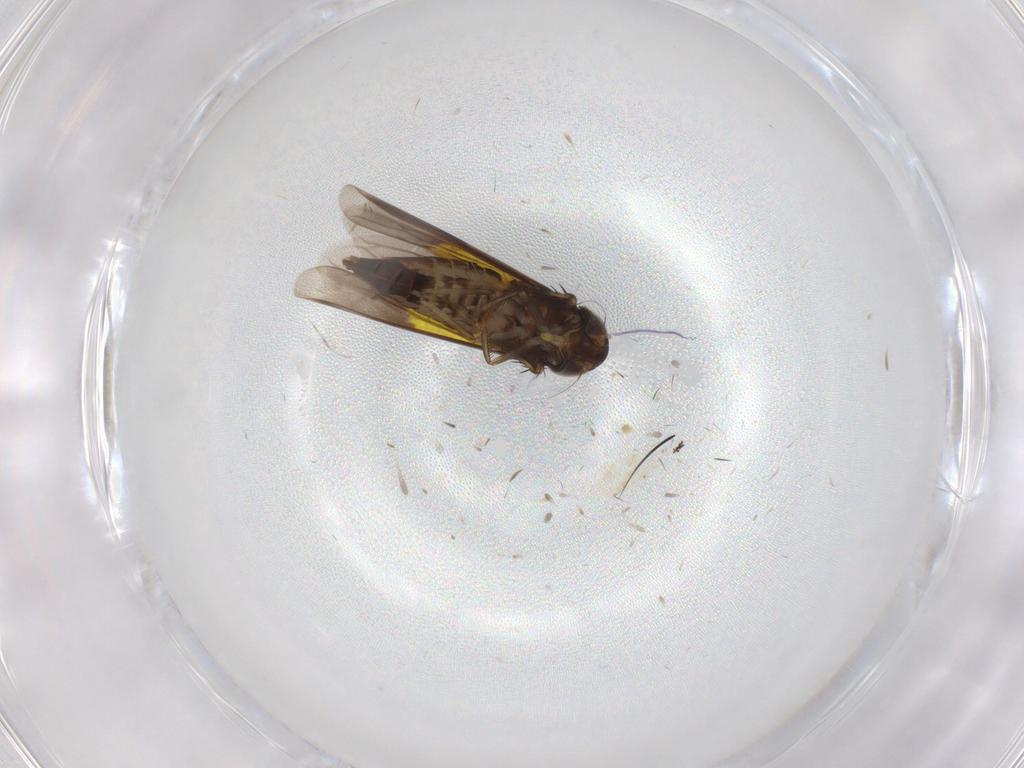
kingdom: Animalia
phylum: Arthropoda
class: Insecta
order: Hemiptera
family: Cicadellidae
